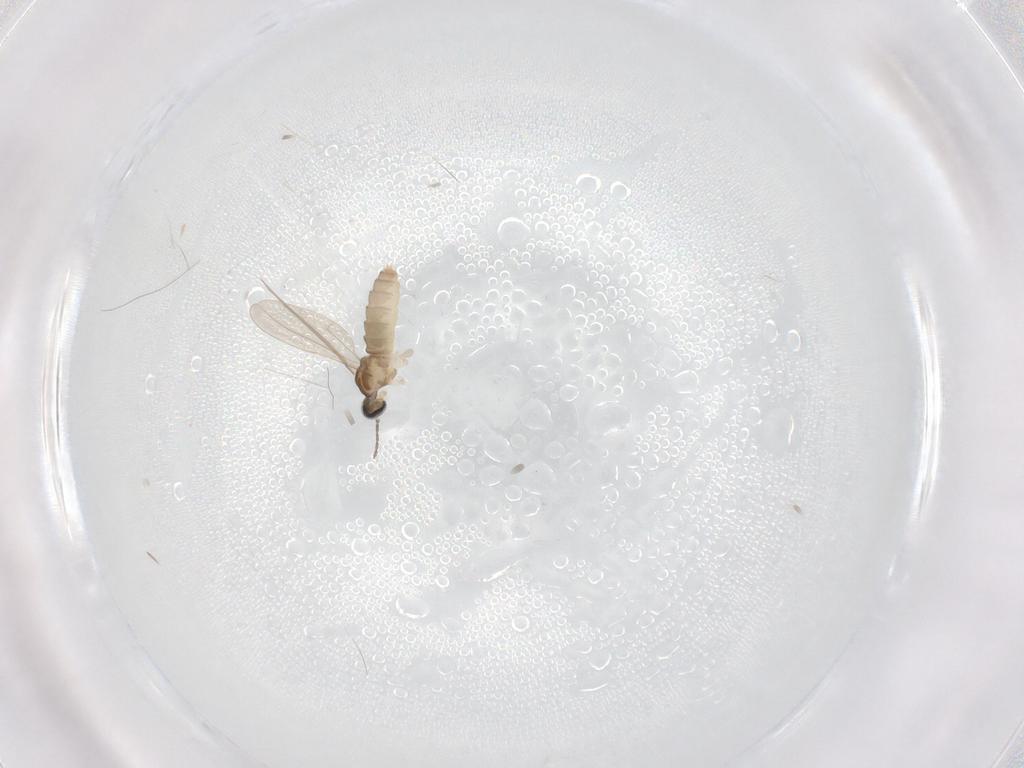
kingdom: Animalia
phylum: Arthropoda
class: Insecta
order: Diptera
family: Cecidomyiidae
